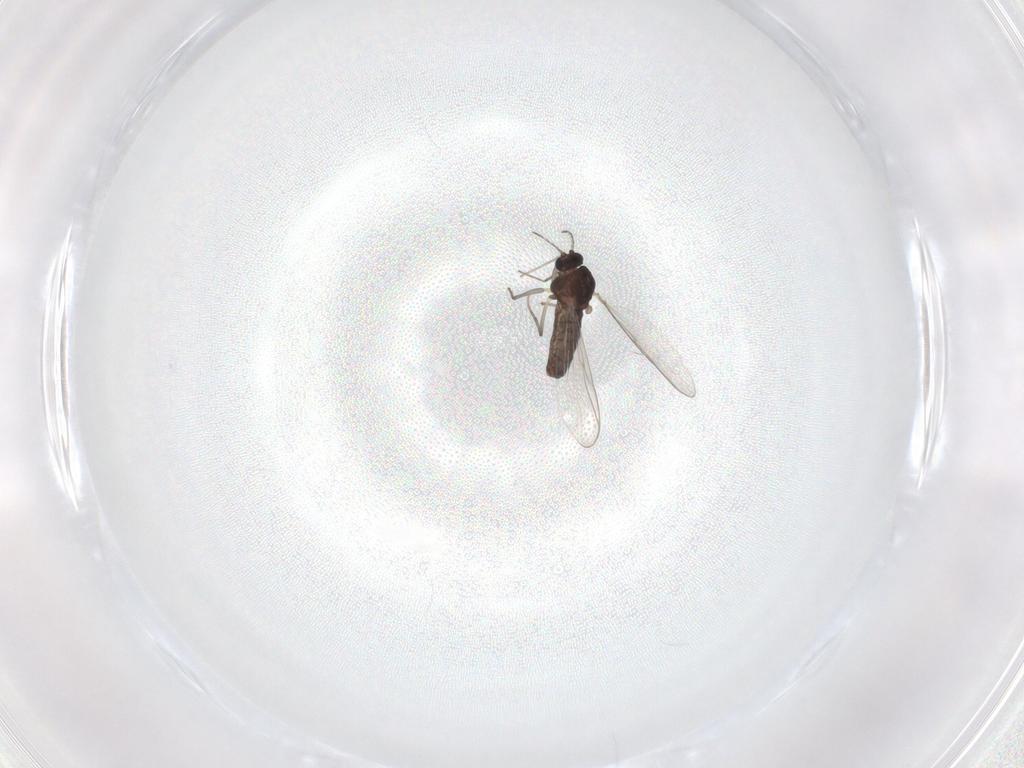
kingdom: Animalia
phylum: Arthropoda
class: Insecta
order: Diptera
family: Chironomidae
